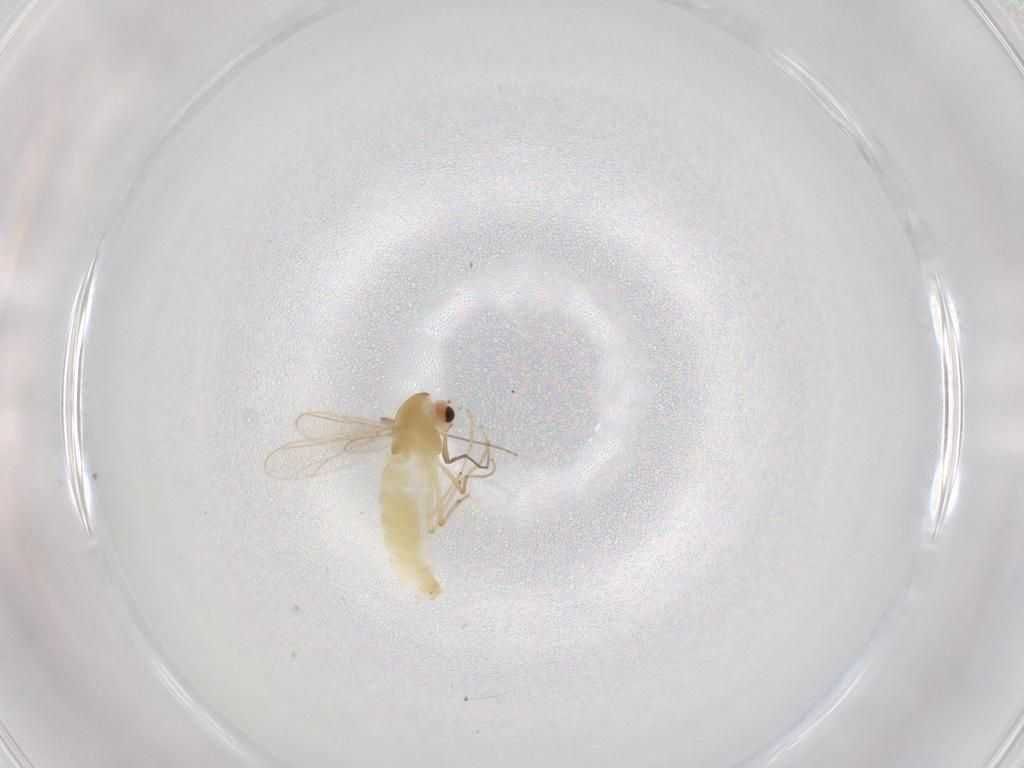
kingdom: Animalia
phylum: Arthropoda
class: Insecta
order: Diptera
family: Chironomidae
